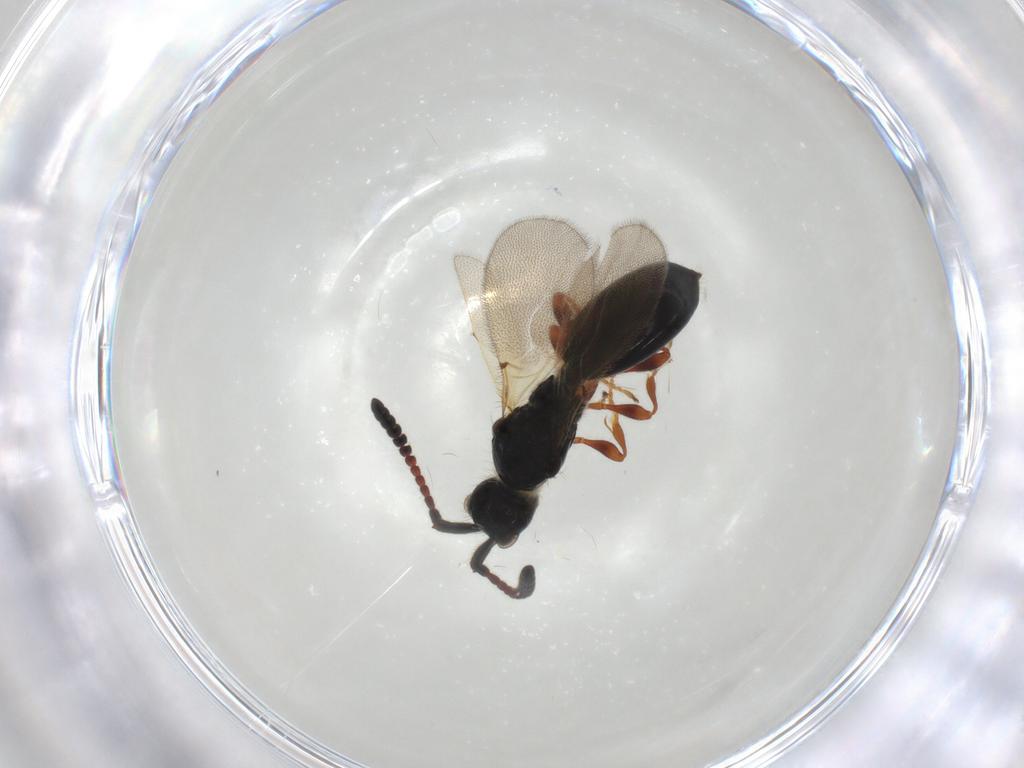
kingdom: Animalia
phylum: Arthropoda
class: Insecta
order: Hymenoptera
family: Diapriidae
